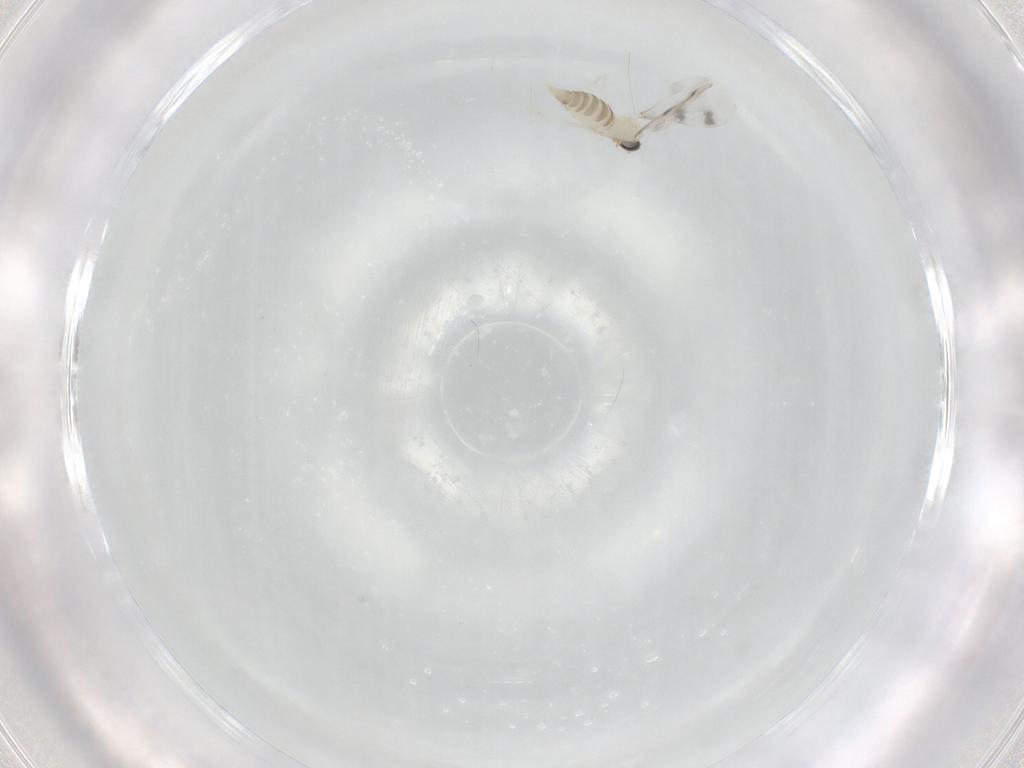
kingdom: Animalia
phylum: Arthropoda
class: Insecta
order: Diptera
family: Cecidomyiidae
